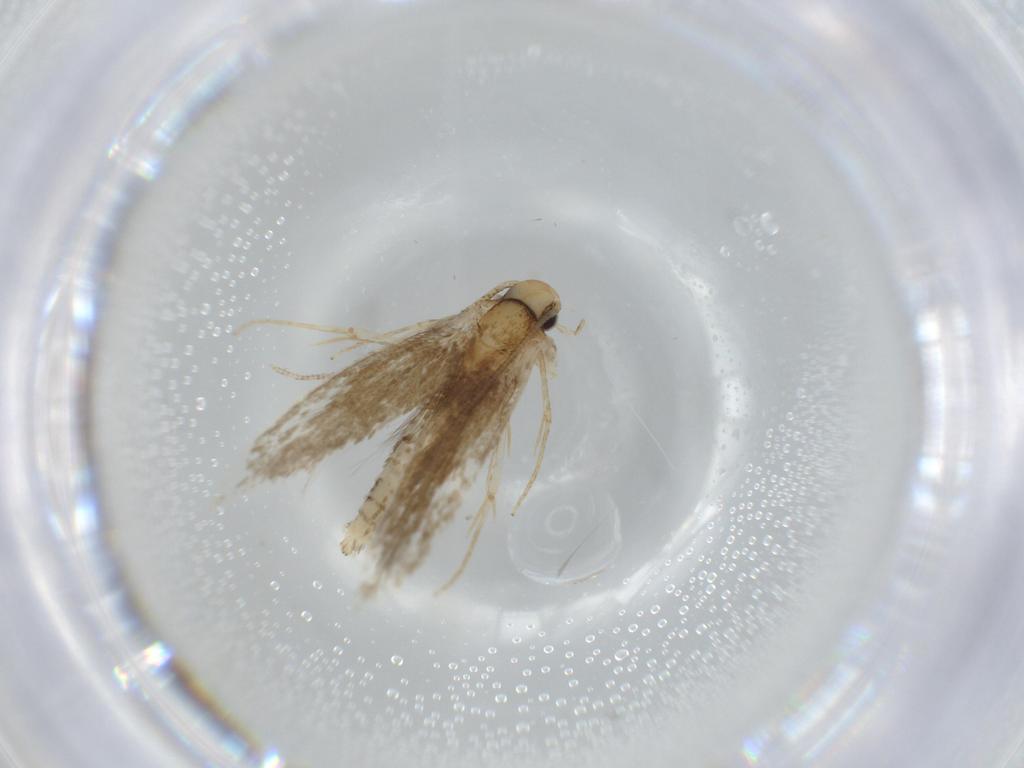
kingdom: Animalia
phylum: Arthropoda
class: Insecta
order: Lepidoptera
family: Tineidae
